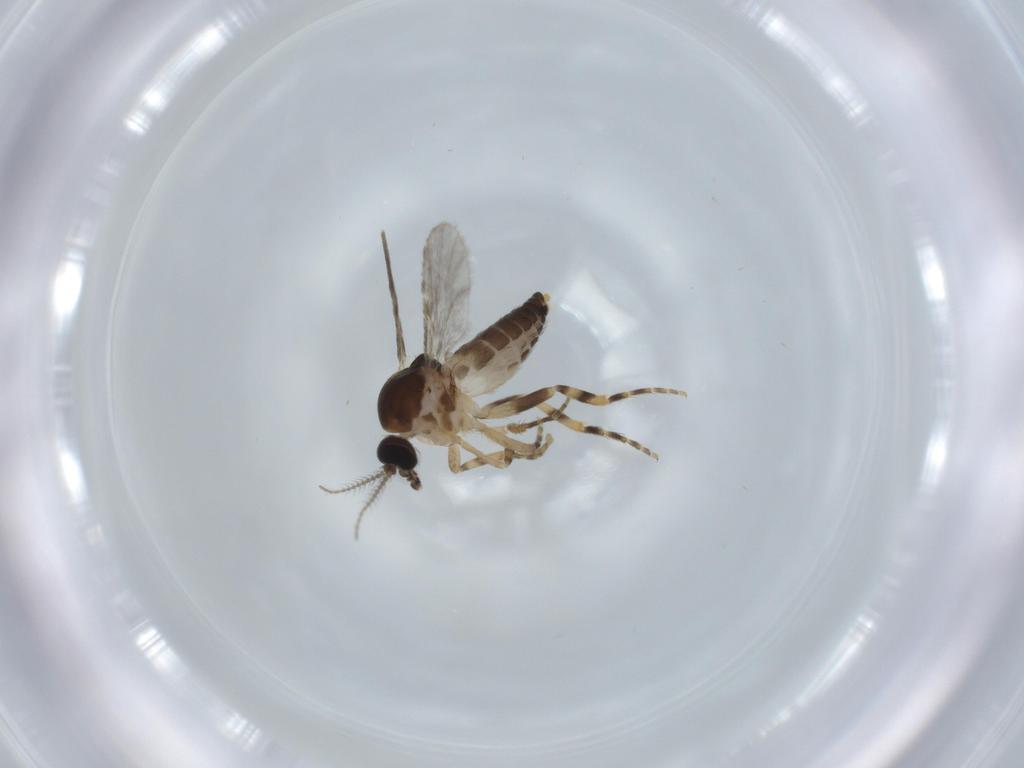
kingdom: Animalia
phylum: Arthropoda
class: Insecta
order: Diptera
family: Ceratopogonidae
